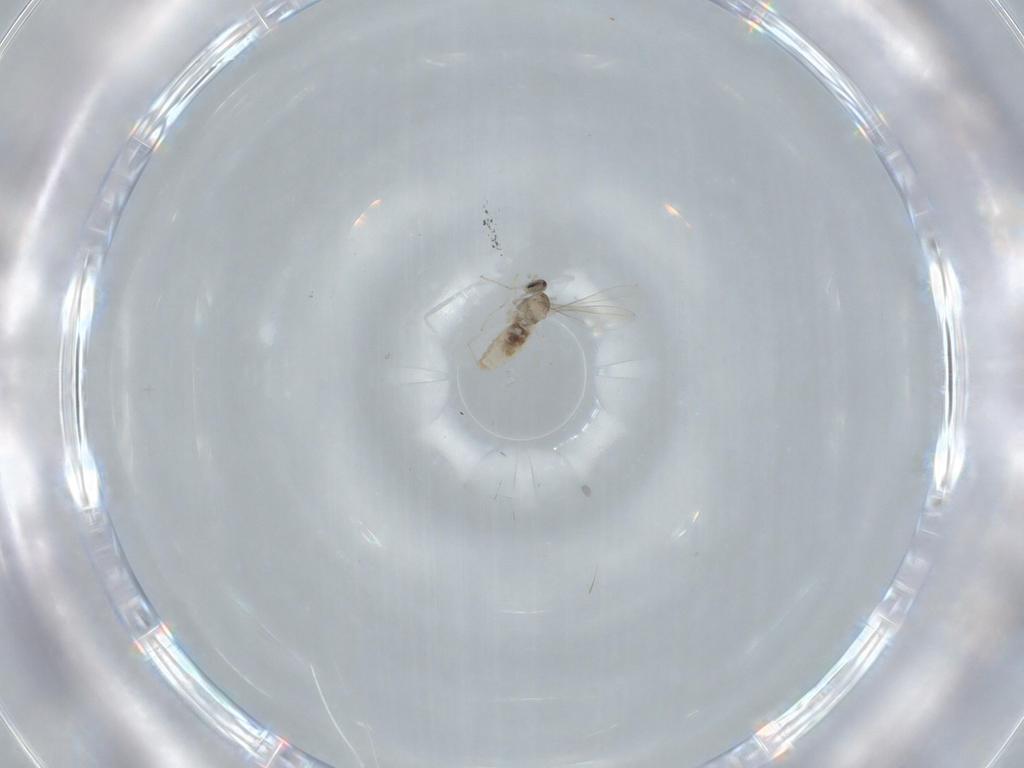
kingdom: Animalia
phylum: Arthropoda
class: Insecta
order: Diptera
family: Cecidomyiidae
